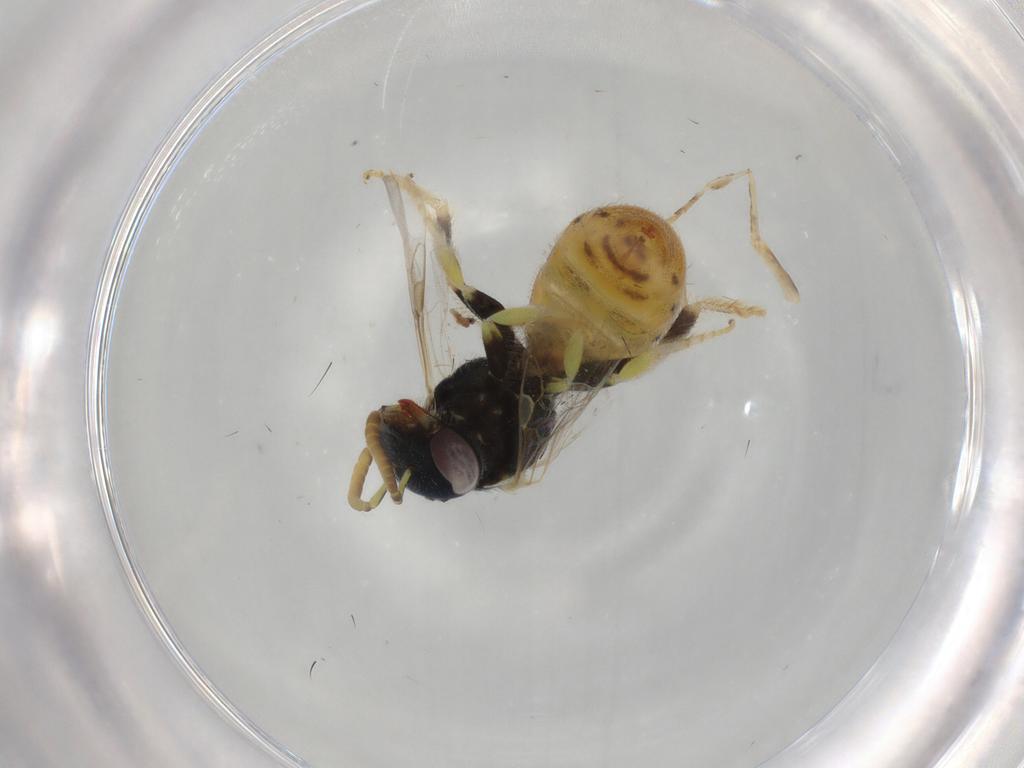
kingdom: Animalia
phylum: Arthropoda
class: Insecta
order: Hymenoptera
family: Halictidae
